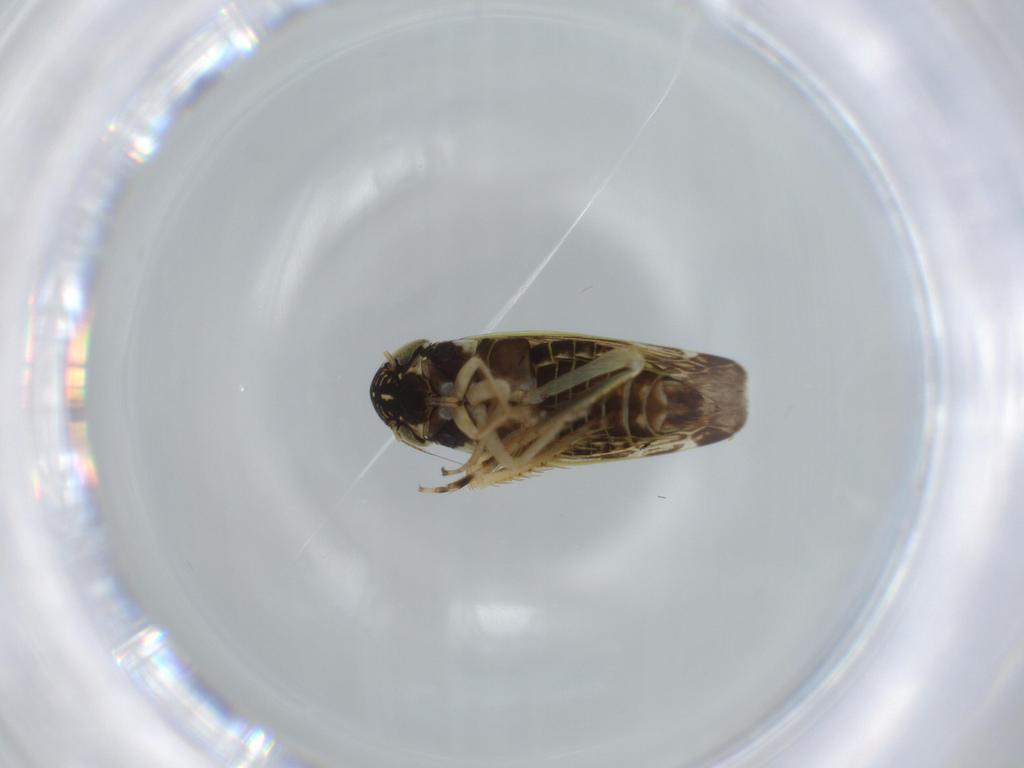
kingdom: Animalia
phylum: Arthropoda
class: Insecta
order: Hemiptera
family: Cicadellidae
